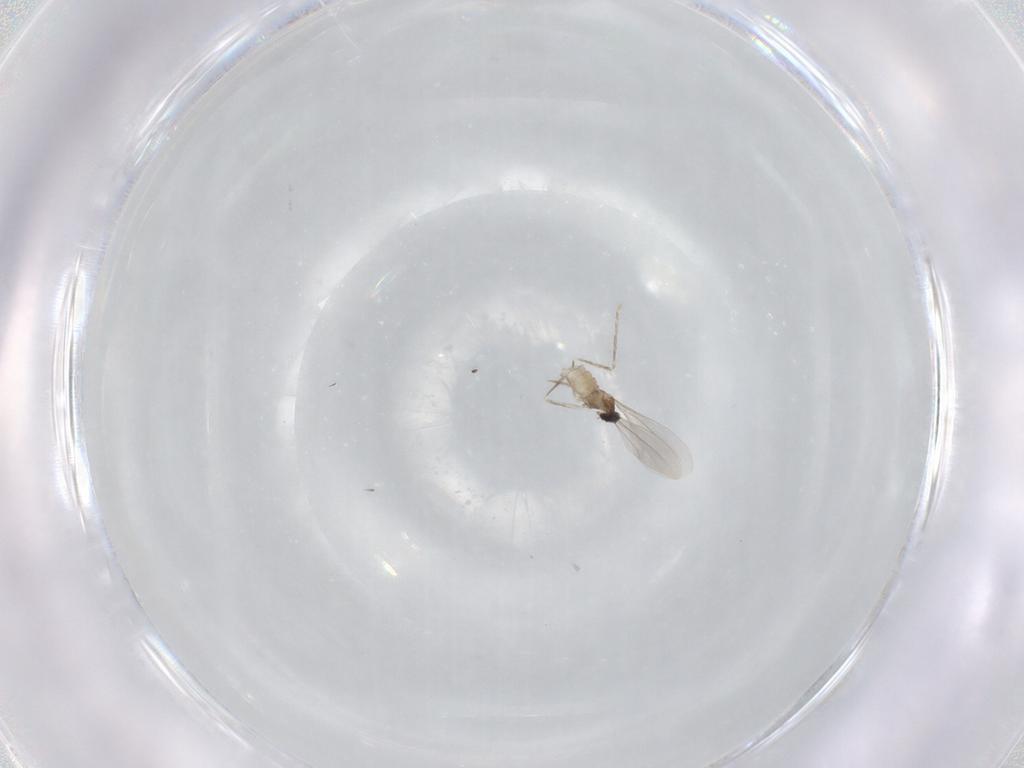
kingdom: Animalia
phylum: Arthropoda
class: Insecta
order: Diptera
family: Cecidomyiidae
